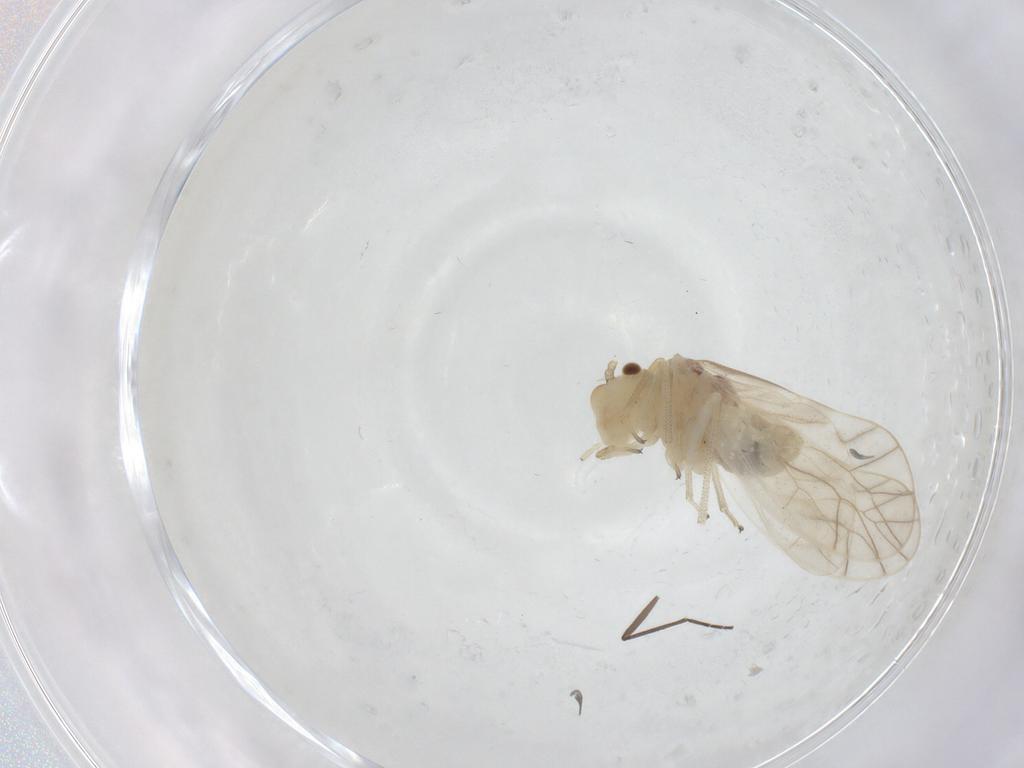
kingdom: Animalia
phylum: Arthropoda
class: Insecta
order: Psocodea
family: Caeciliusidae
